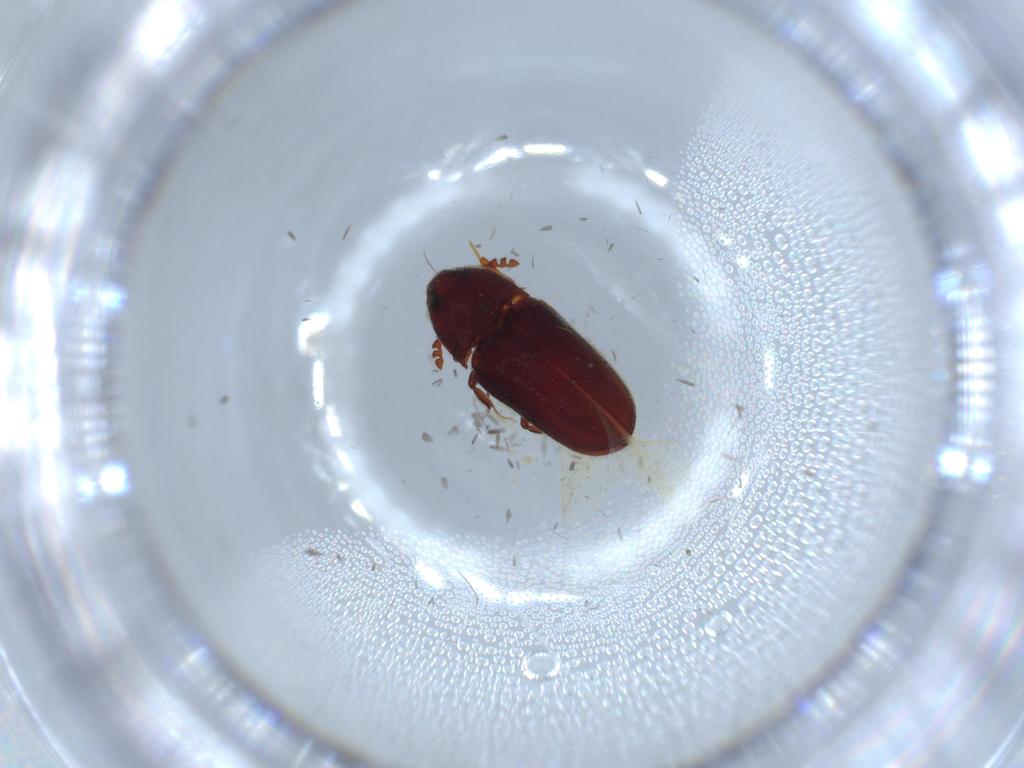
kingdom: Animalia
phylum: Arthropoda
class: Insecta
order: Coleoptera
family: Throscidae
